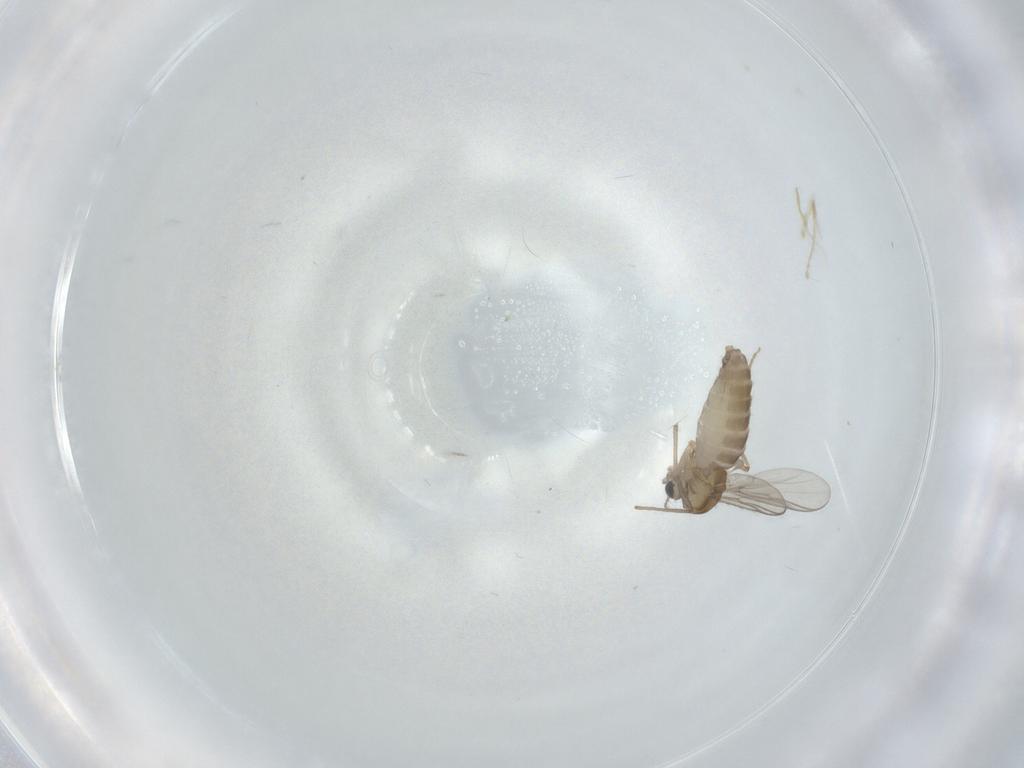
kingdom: Animalia
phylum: Arthropoda
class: Insecta
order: Diptera
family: Chironomidae
